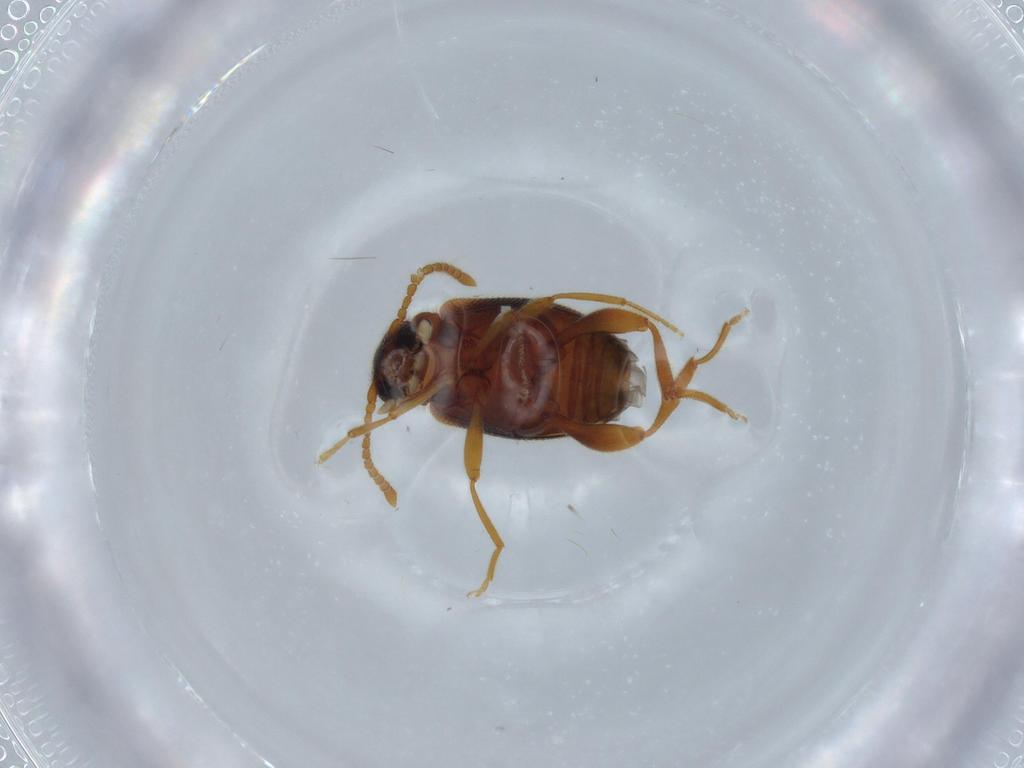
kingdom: Animalia
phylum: Arthropoda
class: Insecta
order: Coleoptera
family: Aderidae
